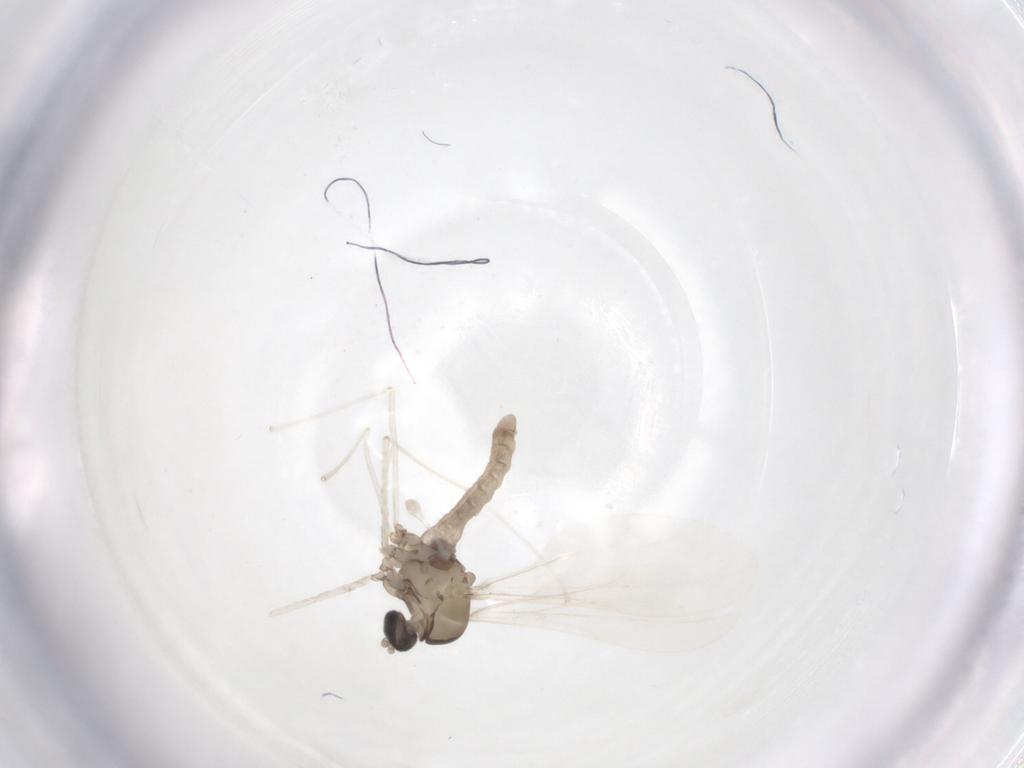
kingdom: Animalia
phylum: Arthropoda
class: Insecta
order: Diptera
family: Cecidomyiidae
